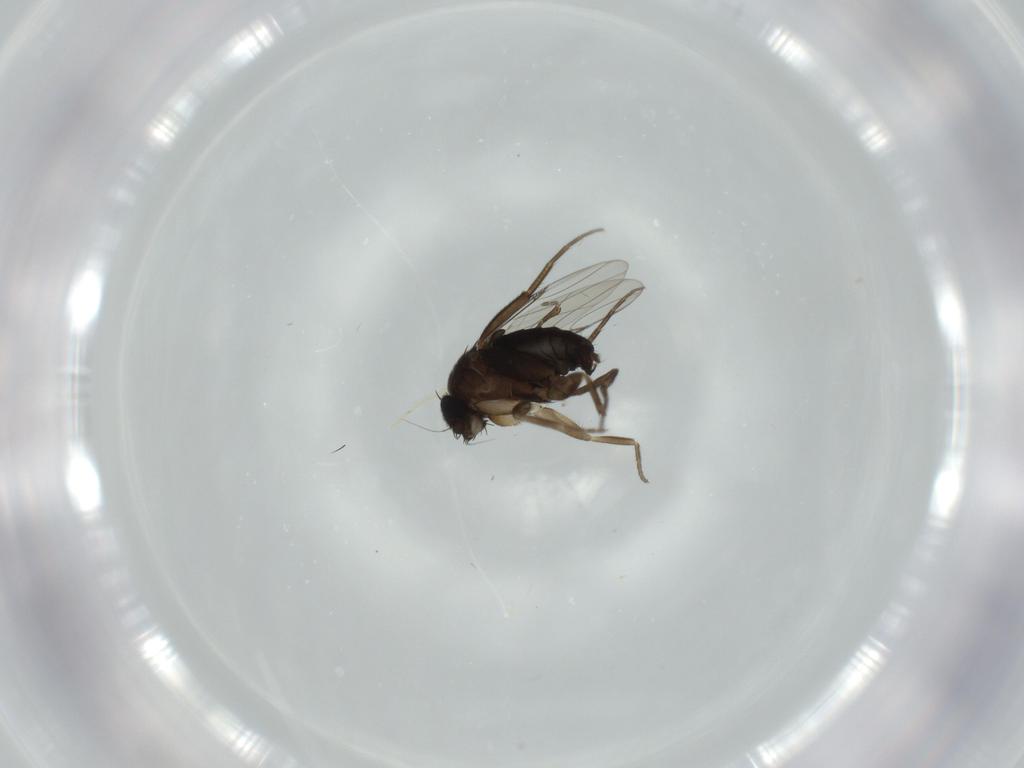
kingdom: Animalia
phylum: Arthropoda
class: Insecta
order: Diptera
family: Phoridae
